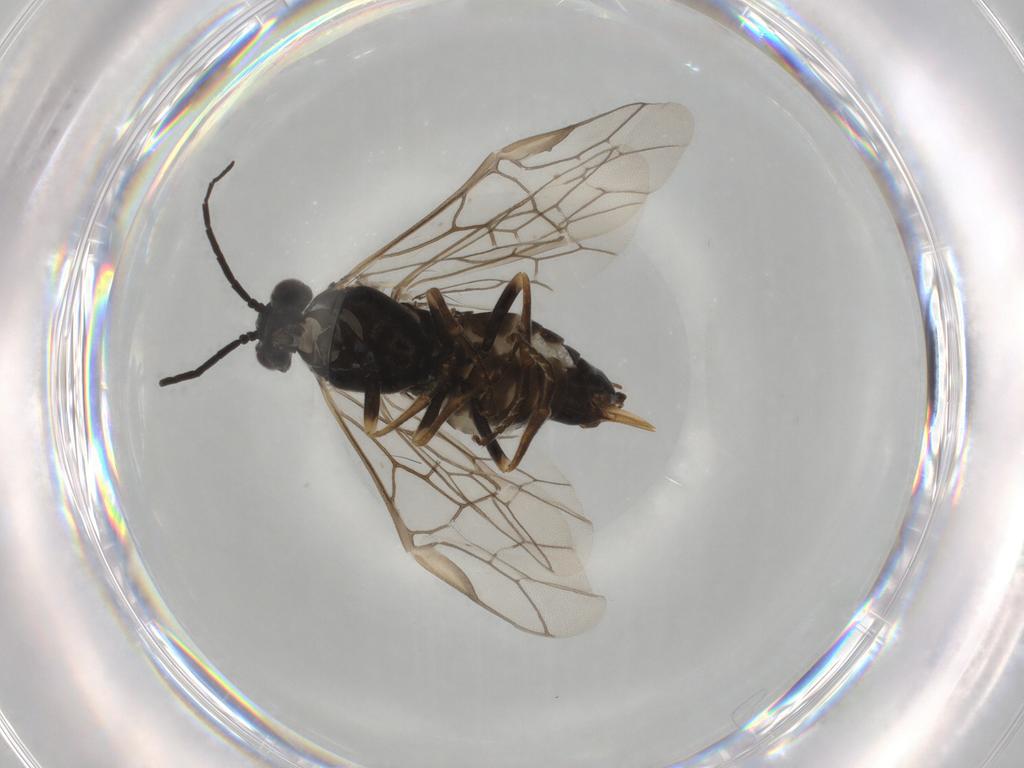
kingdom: Animalia
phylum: Arthropoda
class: Insecta
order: Hymenoptera
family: Tenthredinidae
